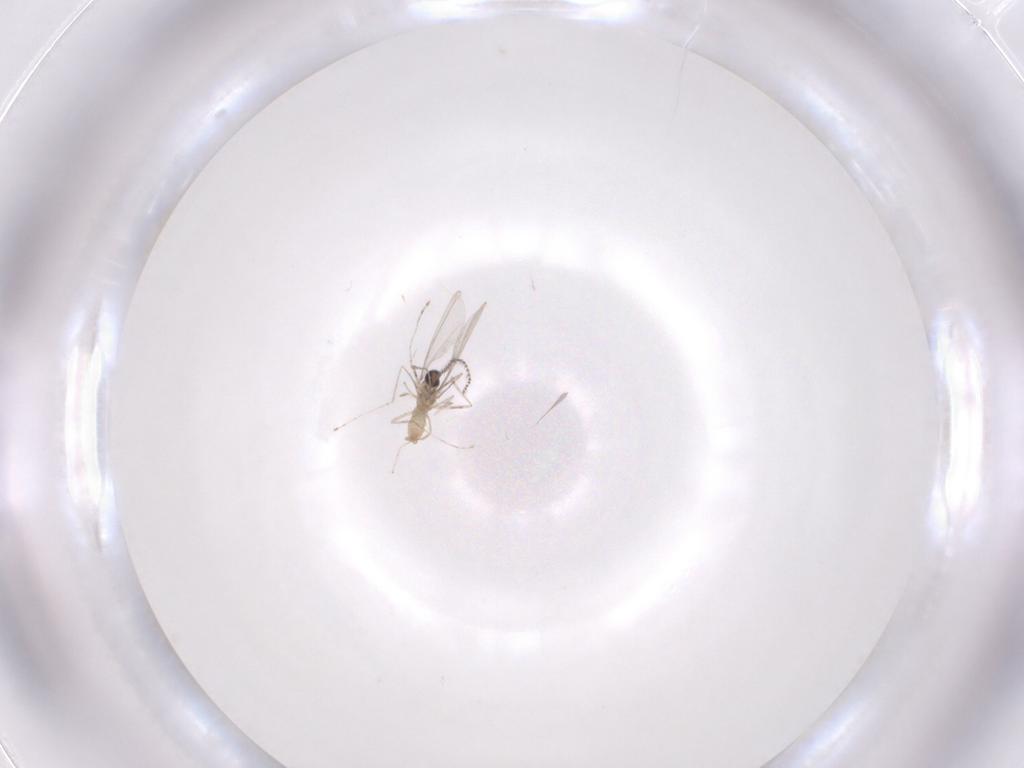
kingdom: Animalia
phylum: Arthropoda
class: Insecta
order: Diptera
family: Cecidomyiidae
